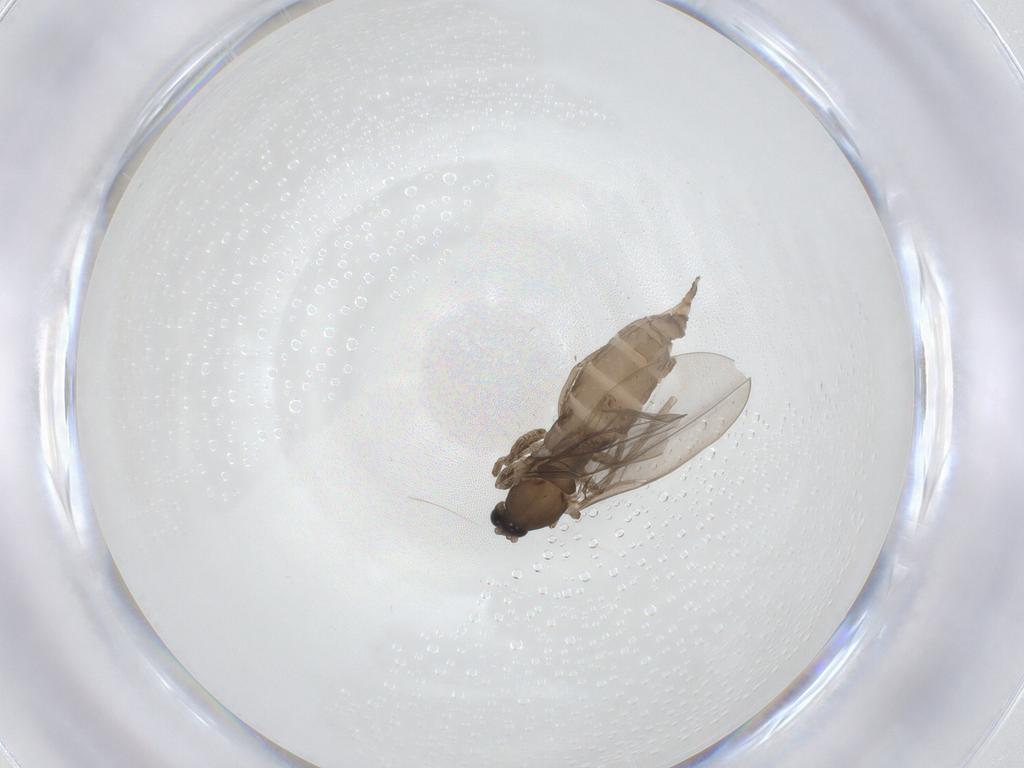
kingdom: Animalia
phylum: Arthropoda
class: Insecta
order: Diptera
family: Cecidomyiidae
